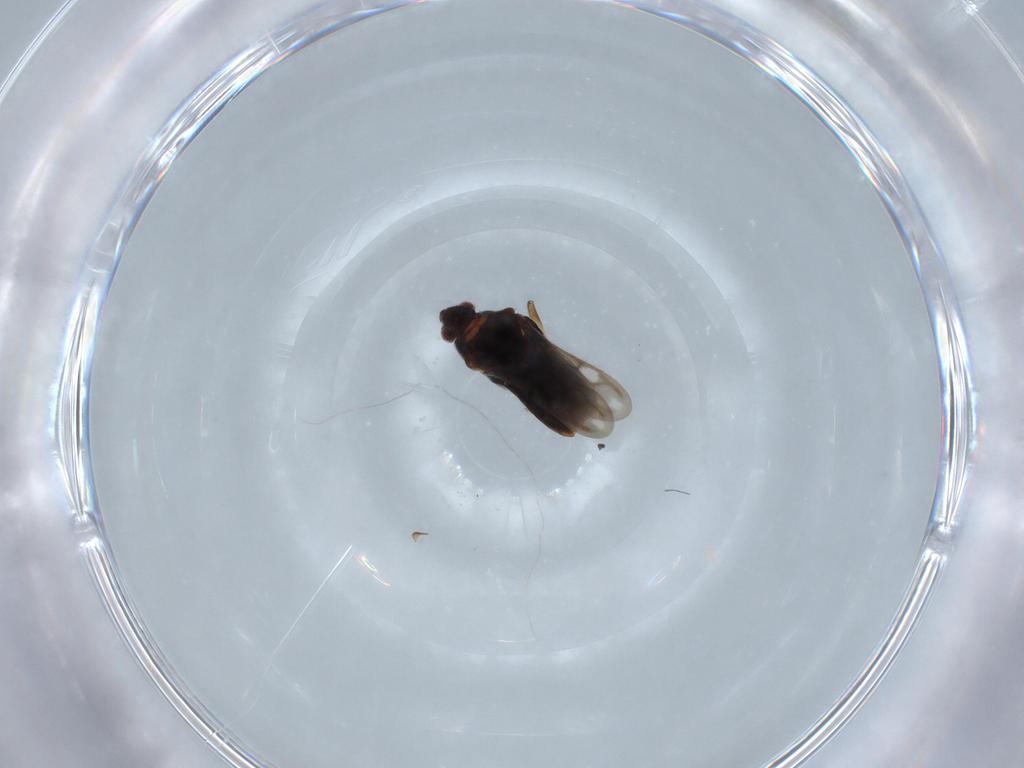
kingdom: Animalia
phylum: Arthropoda
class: Insecta
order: Hemiptera
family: Veliidae
